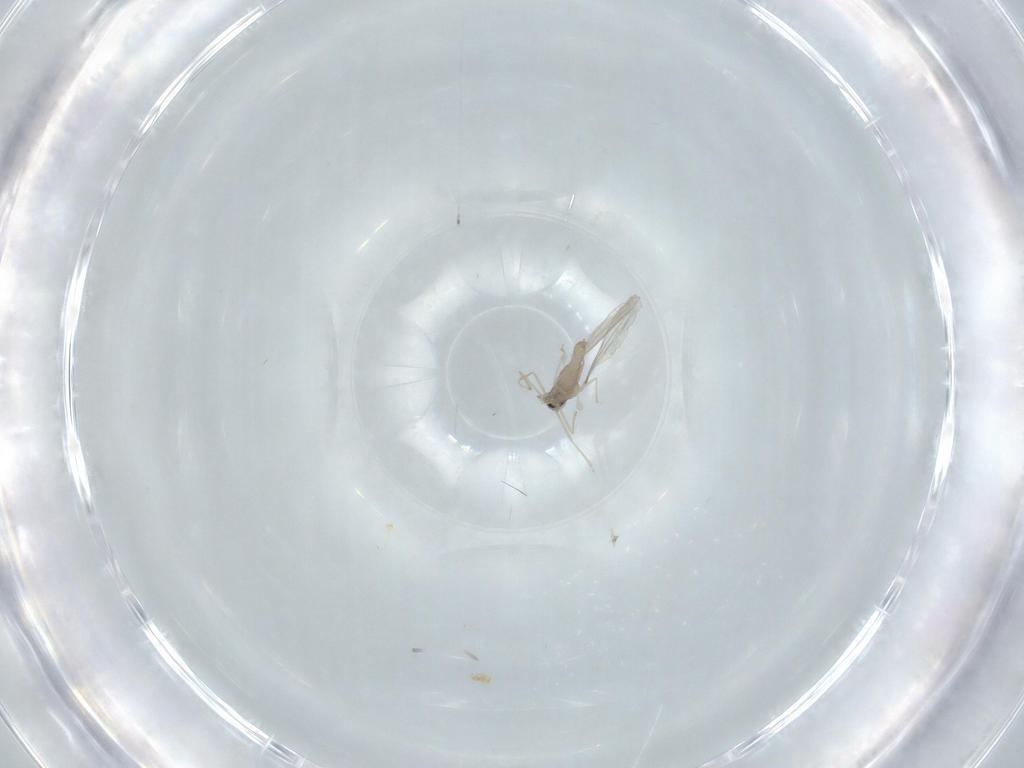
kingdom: Animalia
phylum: Arthropoda
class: Insecta
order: Diptera
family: Cecidomyiidae
